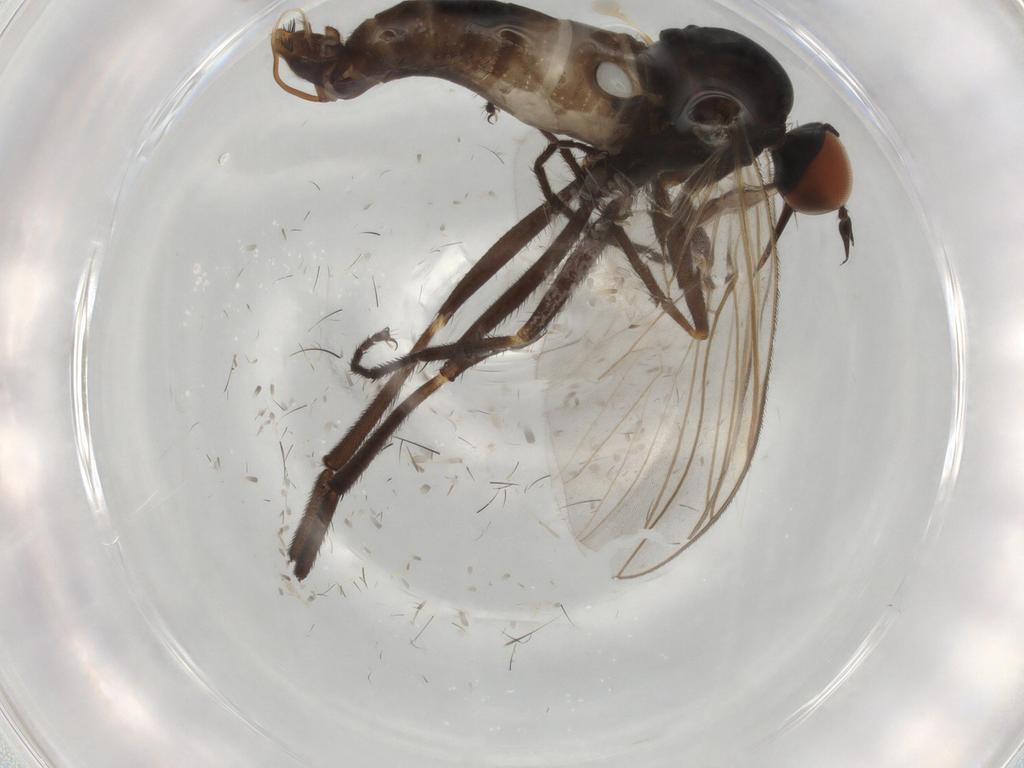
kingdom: Animalia
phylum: Arthropoda
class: Insecta
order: Diptera
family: Empididae
